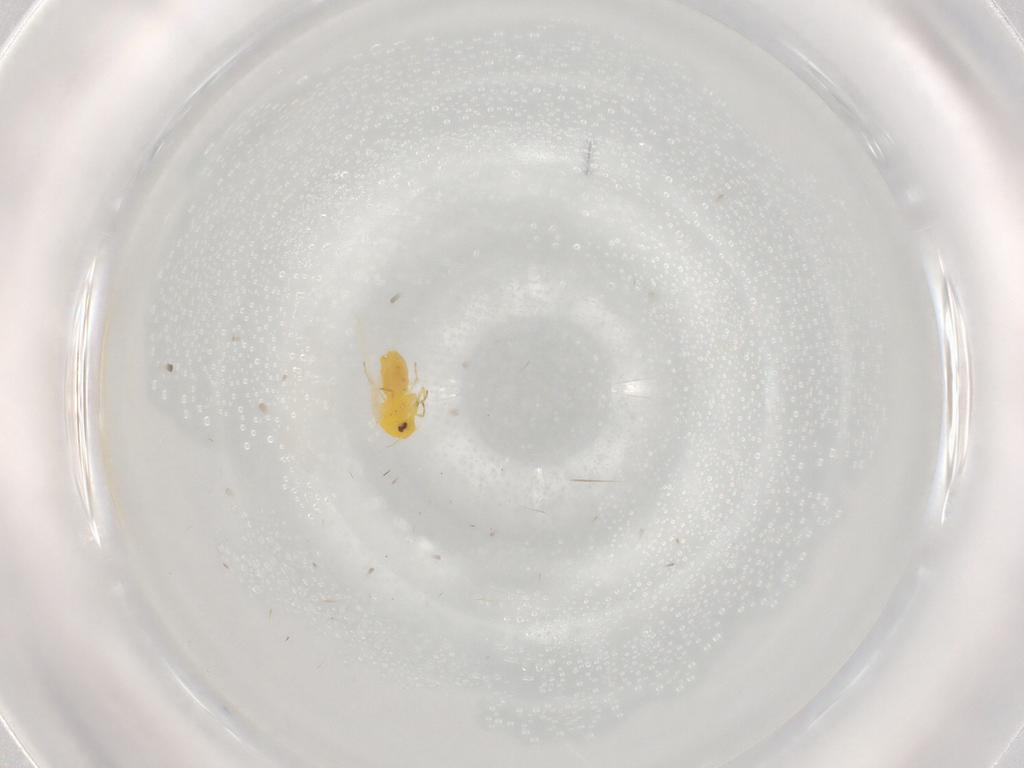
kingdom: Animalia
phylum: Arthropoda
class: Insecta
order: Hemiptera
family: Aleyrodidae
